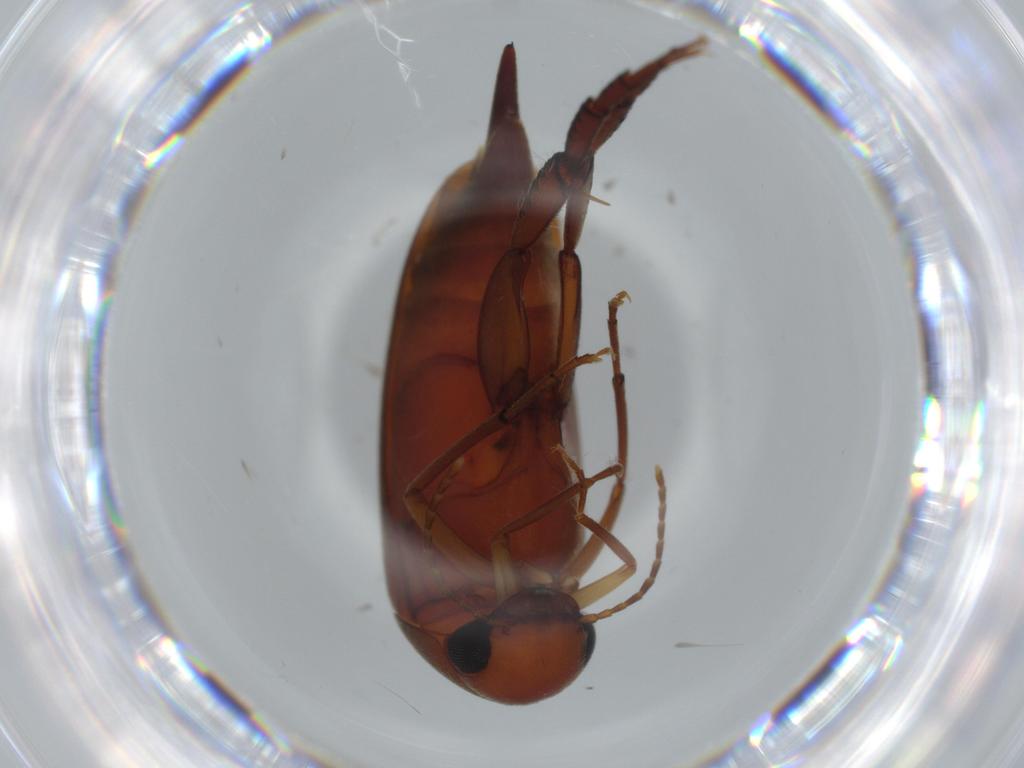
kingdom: Animalia
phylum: Arthropoda
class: Insecta
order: Coleoptera
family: Mordellidae
